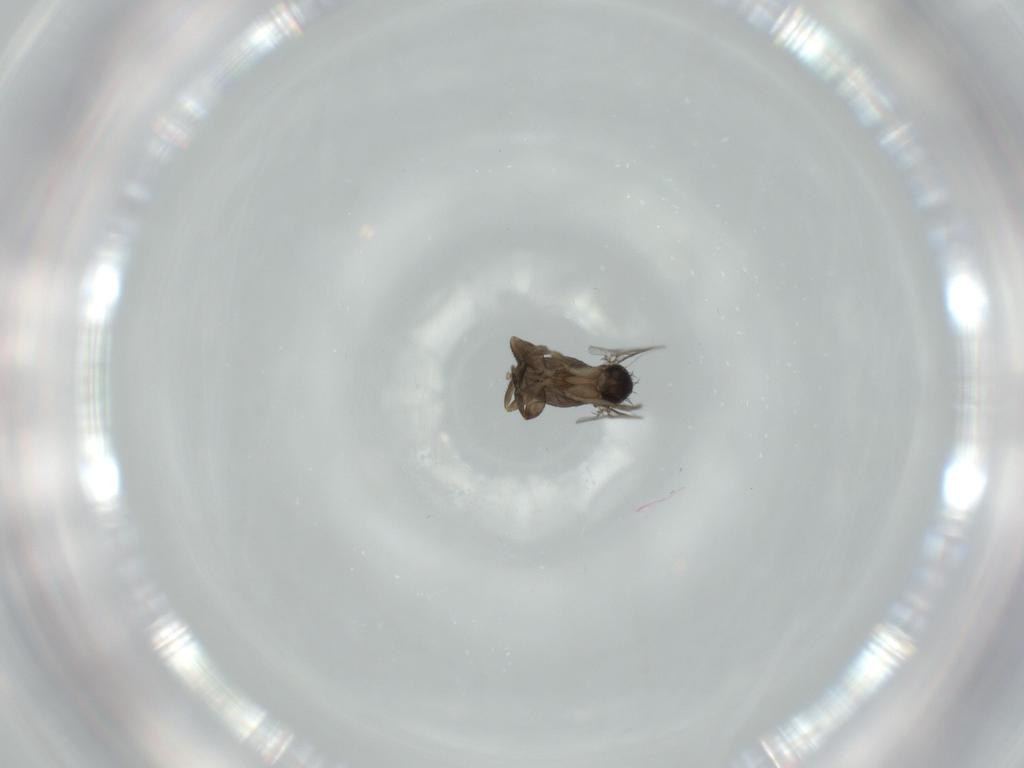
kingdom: Animalia
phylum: Arthropoda
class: Insecta
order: Diptera
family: Phoridae
